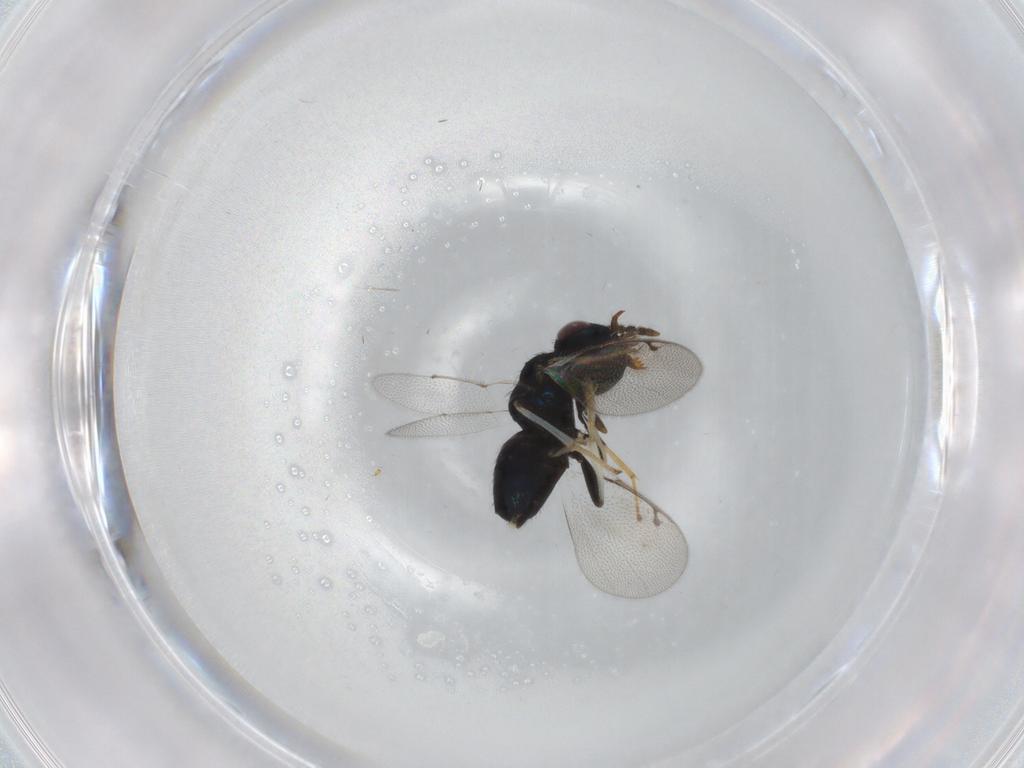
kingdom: Animalia
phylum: Arthropoda
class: Insecta
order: Hymenoptera
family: Pirenidae
